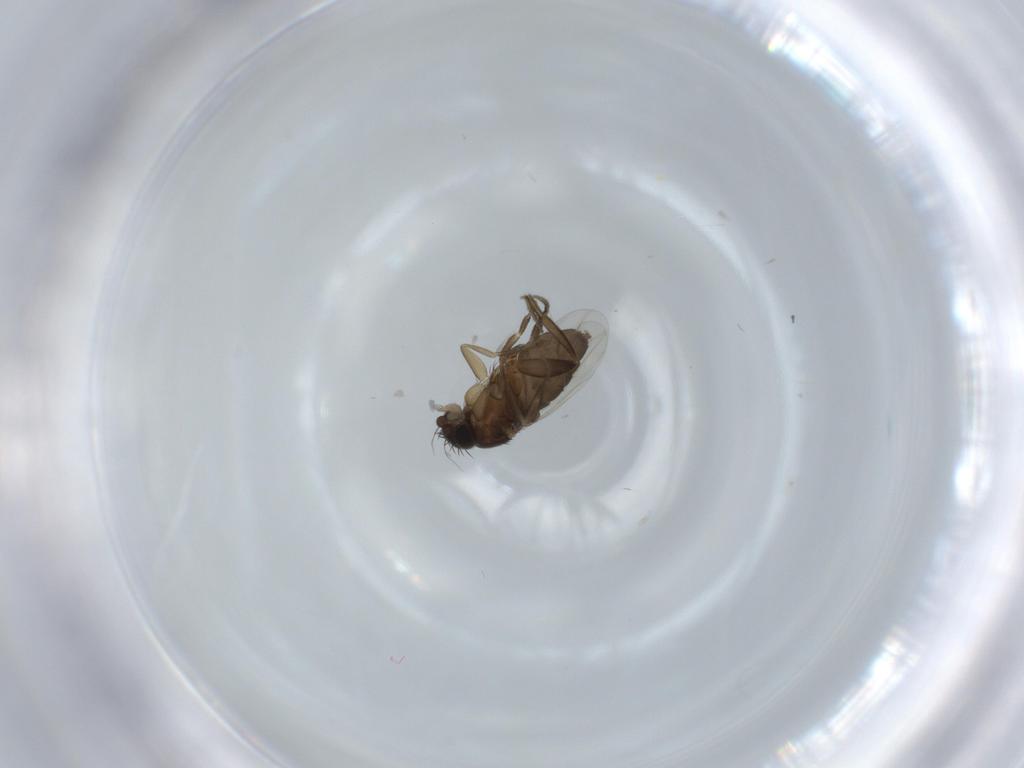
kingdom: Animalia
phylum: Arthropoda
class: Insecta
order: Diptera
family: Phoridae
